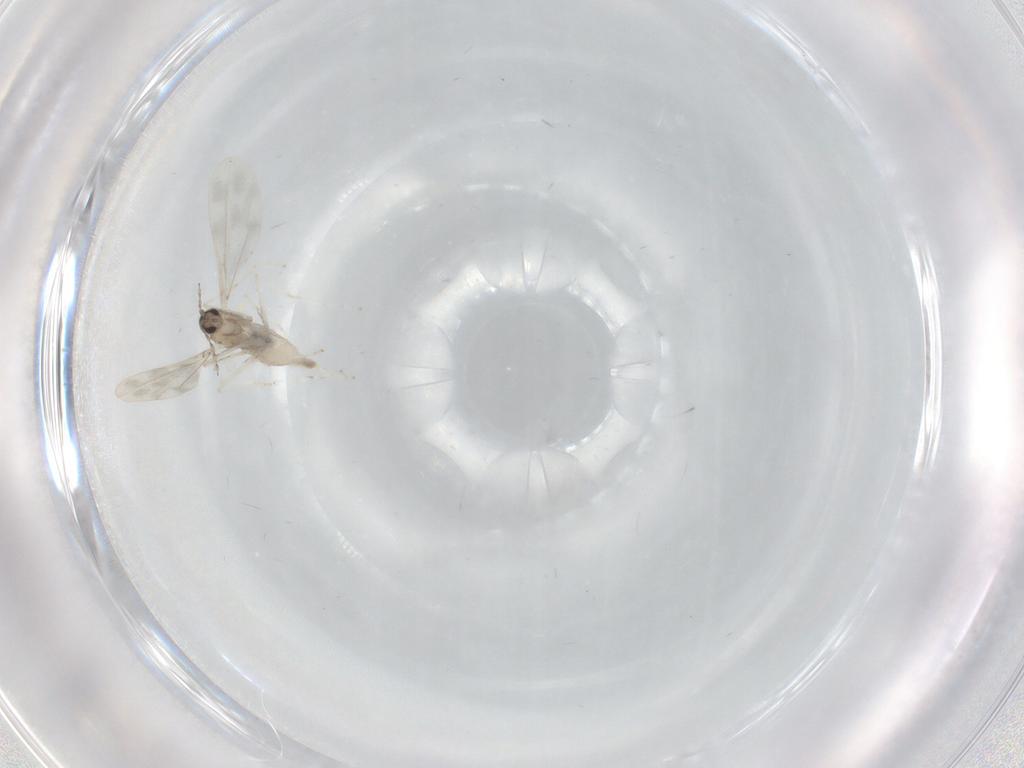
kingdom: Animalia
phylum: Arthropoda
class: Insecta
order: Diptera
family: Cecidomyiidae
